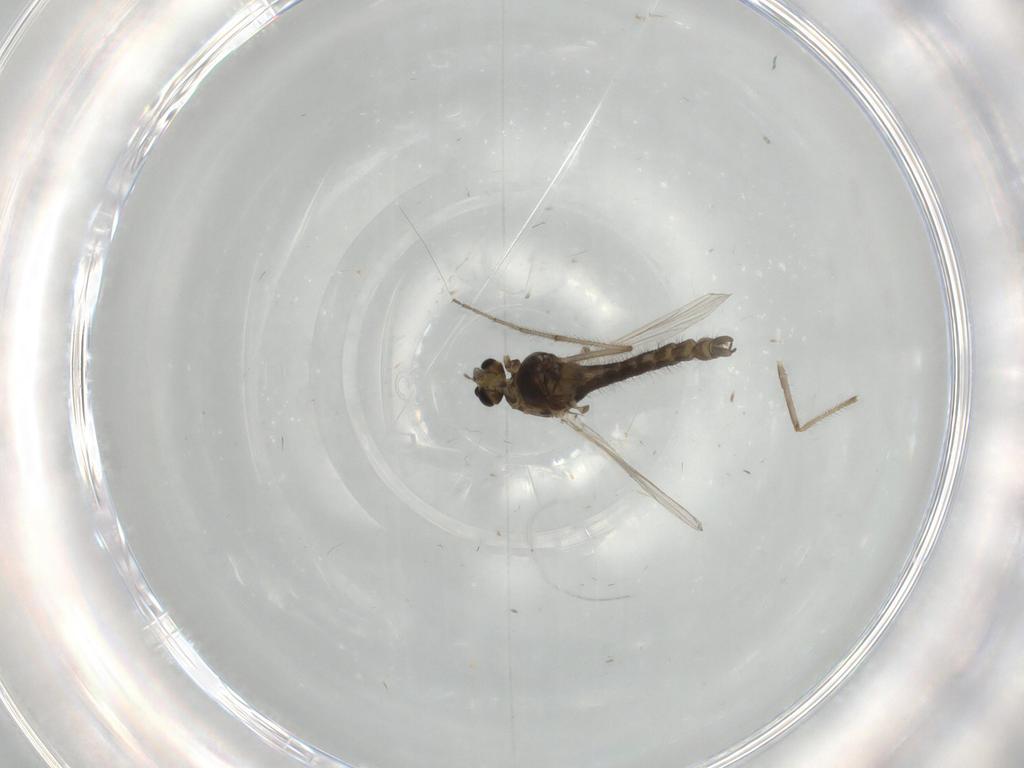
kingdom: Animalia
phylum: Arthropoda
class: Insecta
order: Diptera
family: Chironomidae
